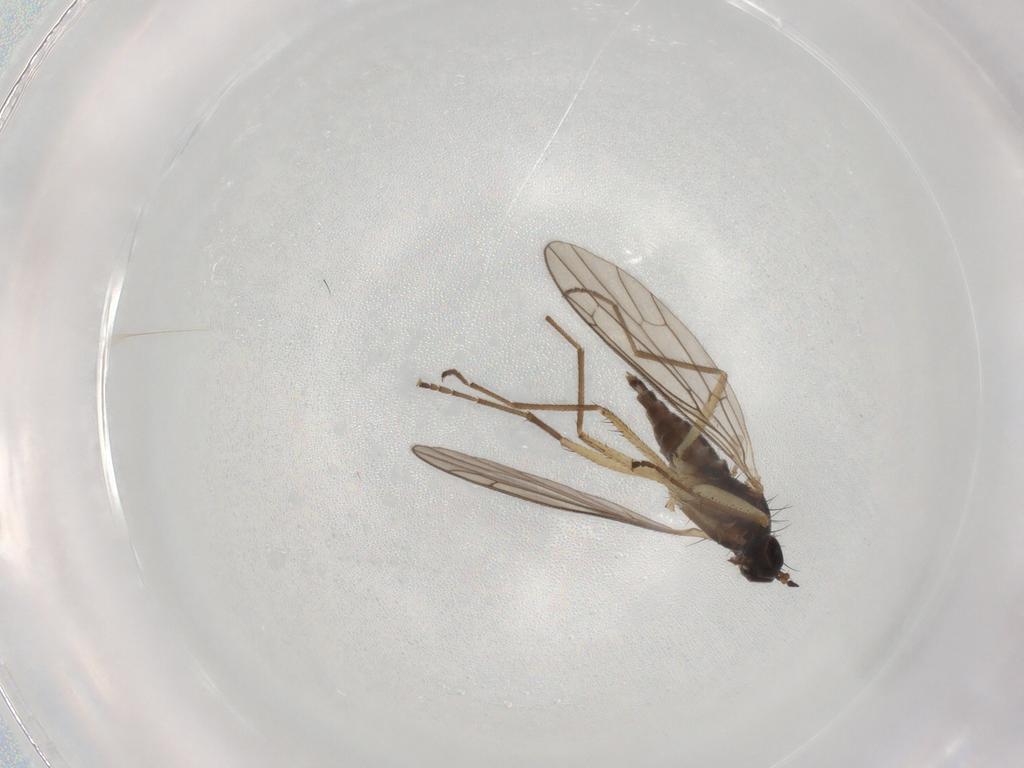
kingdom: Animalia
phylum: Arthropoda
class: Insecta
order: Diptera
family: Empididae
